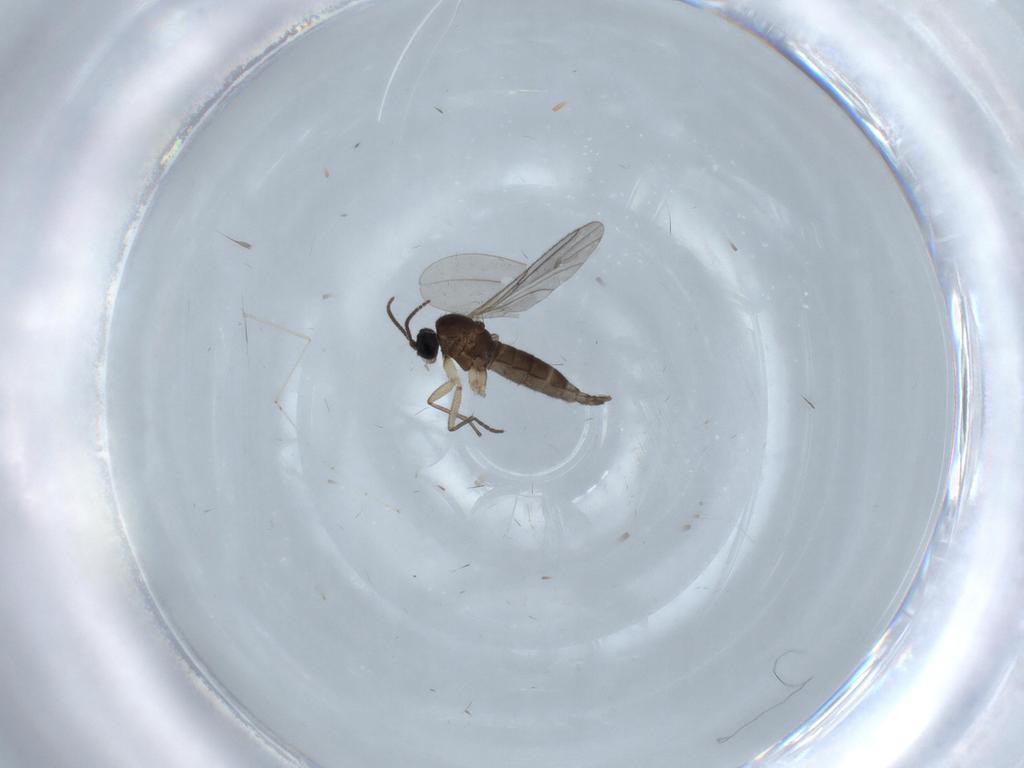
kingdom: Animalia
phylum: Arthropoda
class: Insecta
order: Diptera
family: Sciaridae
